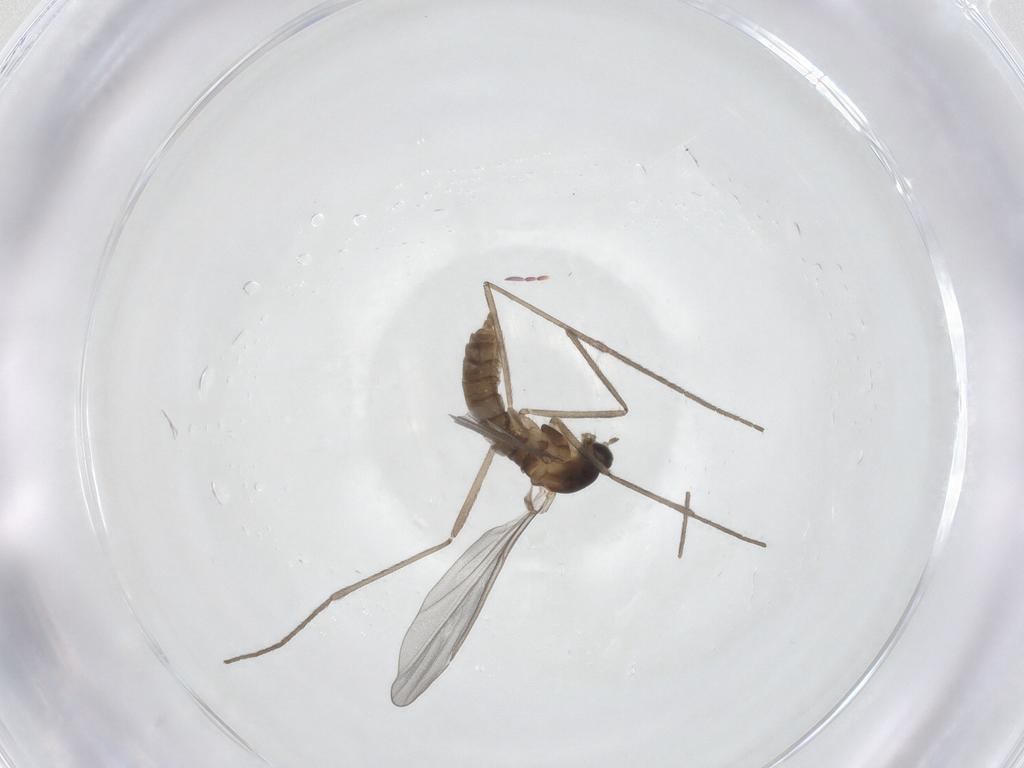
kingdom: Animalia
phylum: Arthropoda
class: Insecta
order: Diptera
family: Cecidomyiidae
